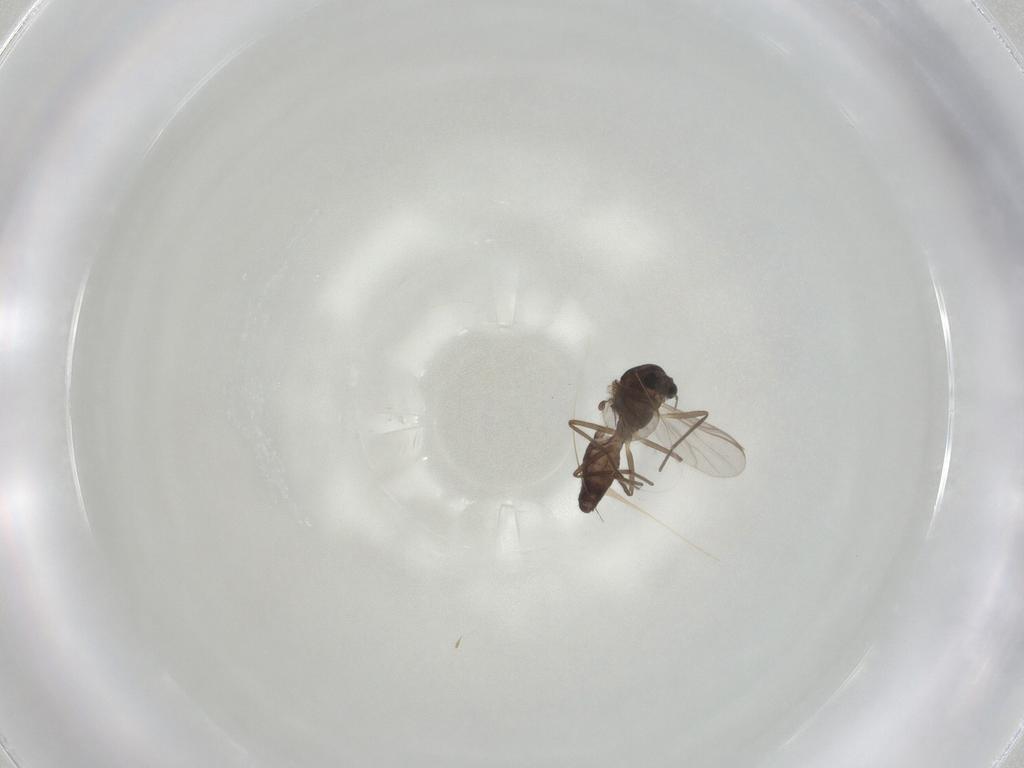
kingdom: Animalia
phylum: Arthropoda
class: Insecta
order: Diptera
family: Chironomidae
